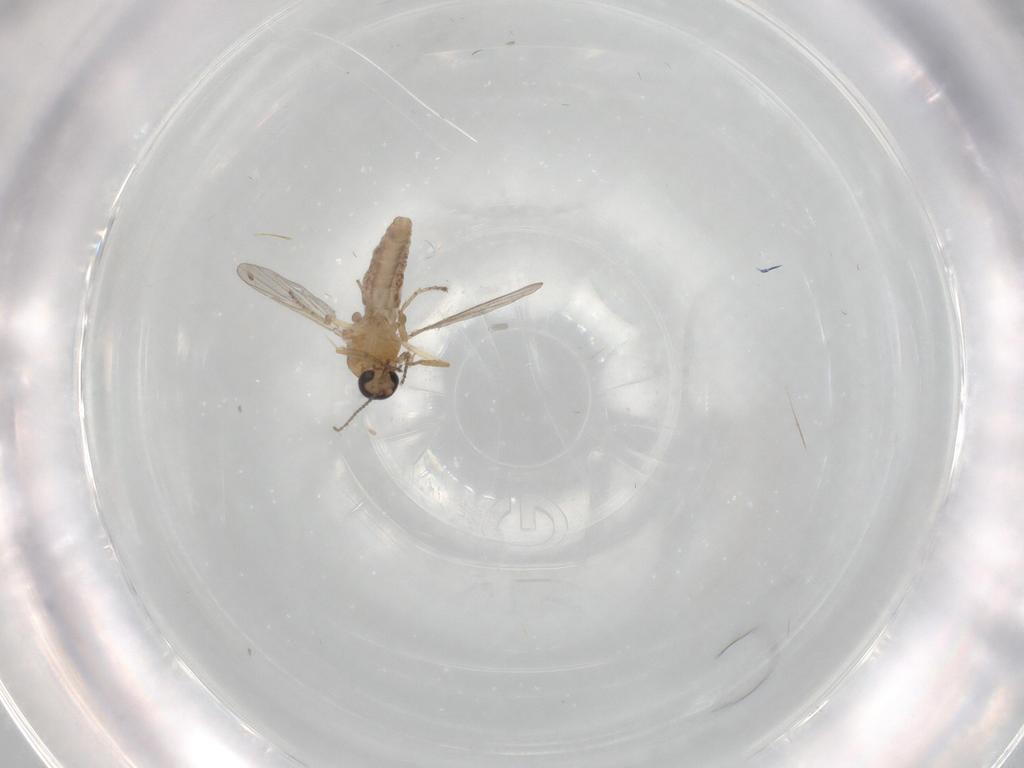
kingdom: Animalia
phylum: Arthropoda
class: Insecta
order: Diptera
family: Ceratopogonidae
